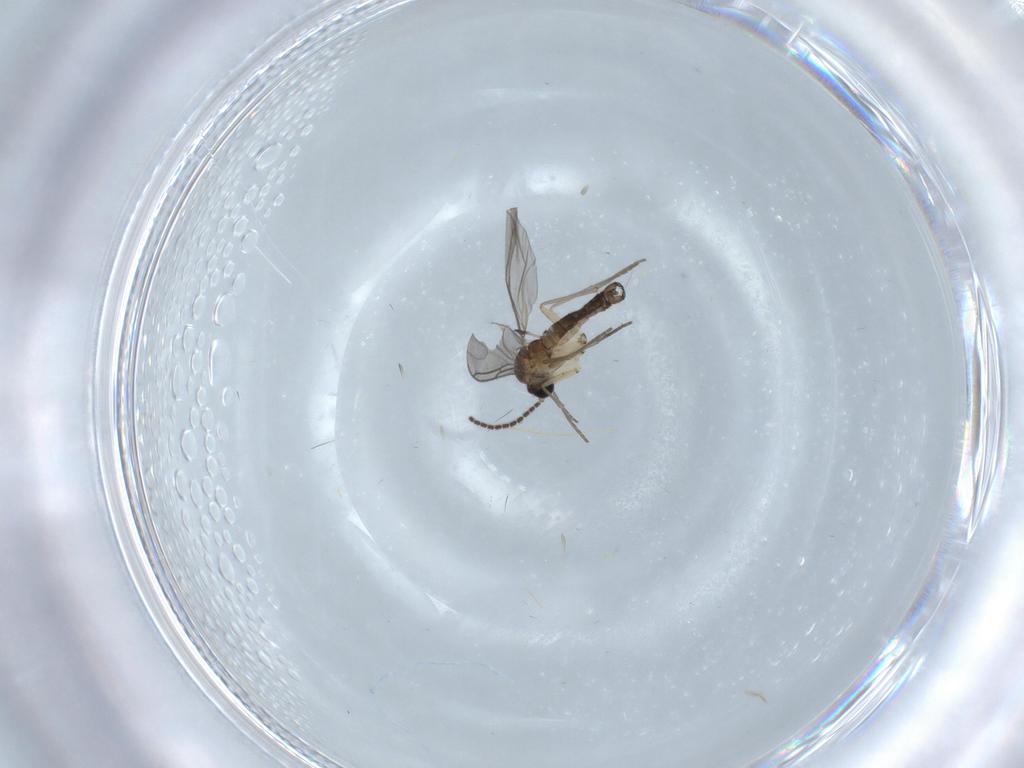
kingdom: Animalia
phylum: Arthropoda
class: Insecta
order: Diptera
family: Sciaridae
